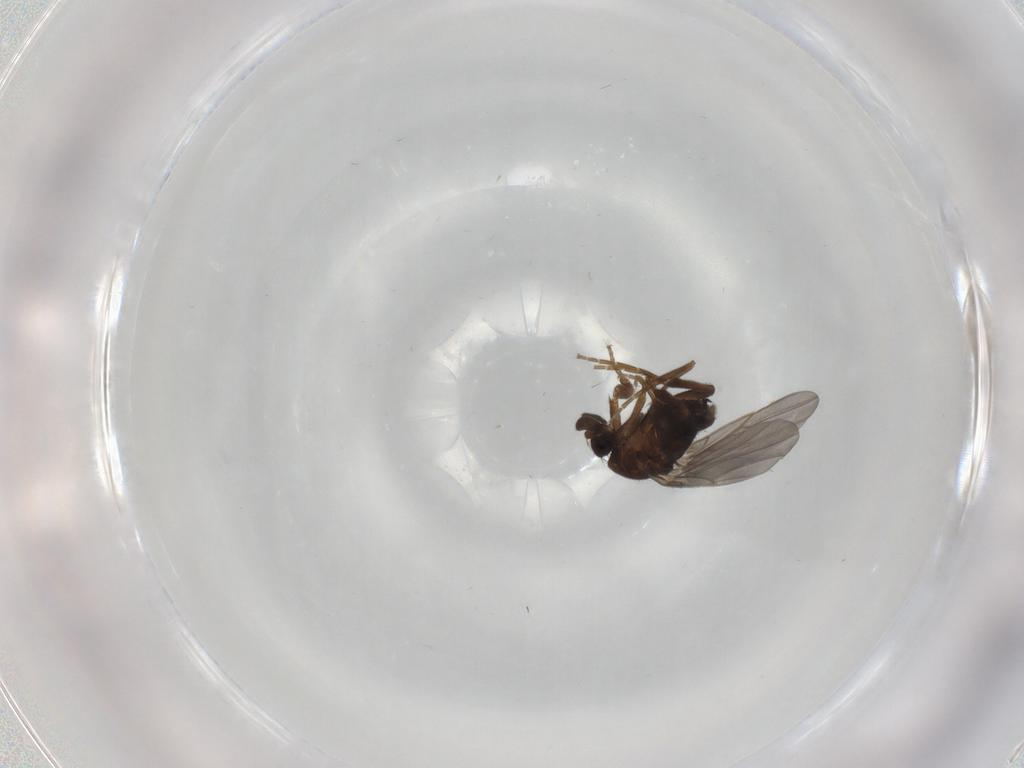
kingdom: Animalia
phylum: Arthropoda
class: Insecta
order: Diptera
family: Phoridae
